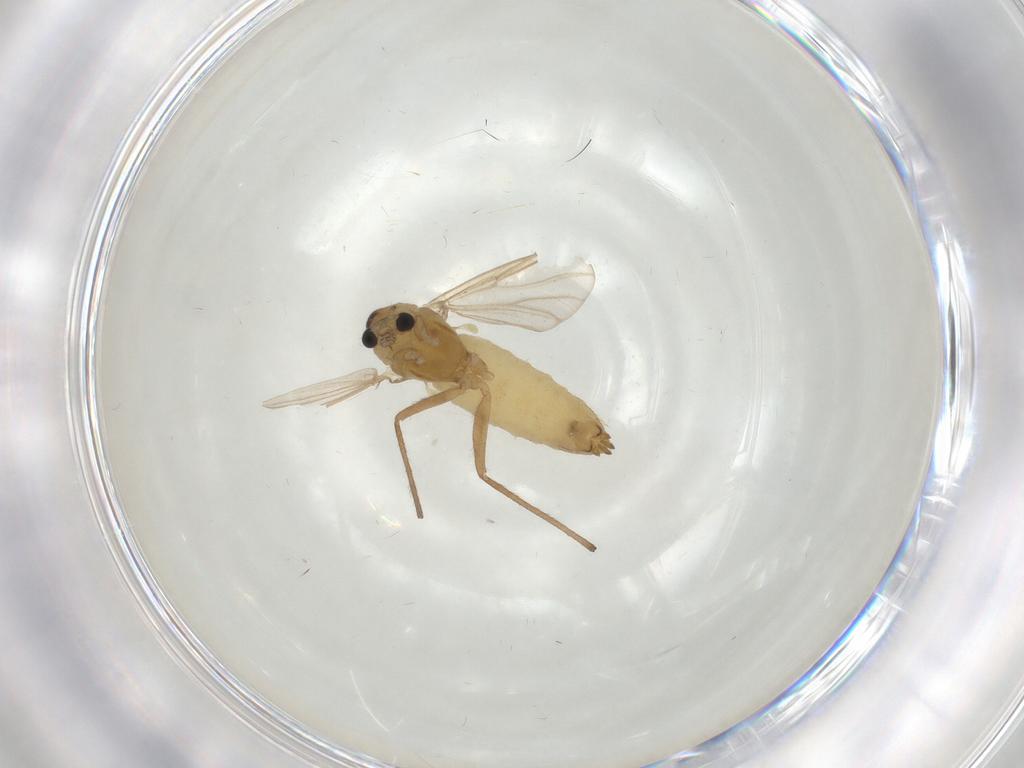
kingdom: Animalia
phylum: Arthropoda
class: Insecta
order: Diptera
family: Chironomidae
